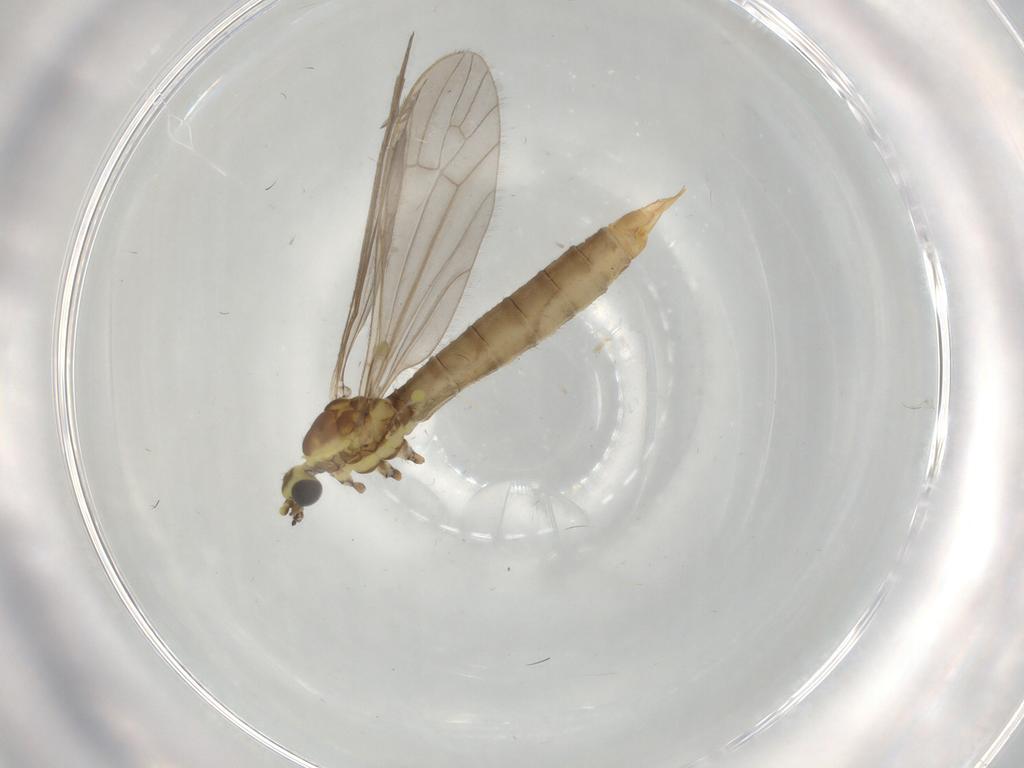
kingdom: Animalia
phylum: Arthropoda
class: Insecta
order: Diptera
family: Limoniidae
